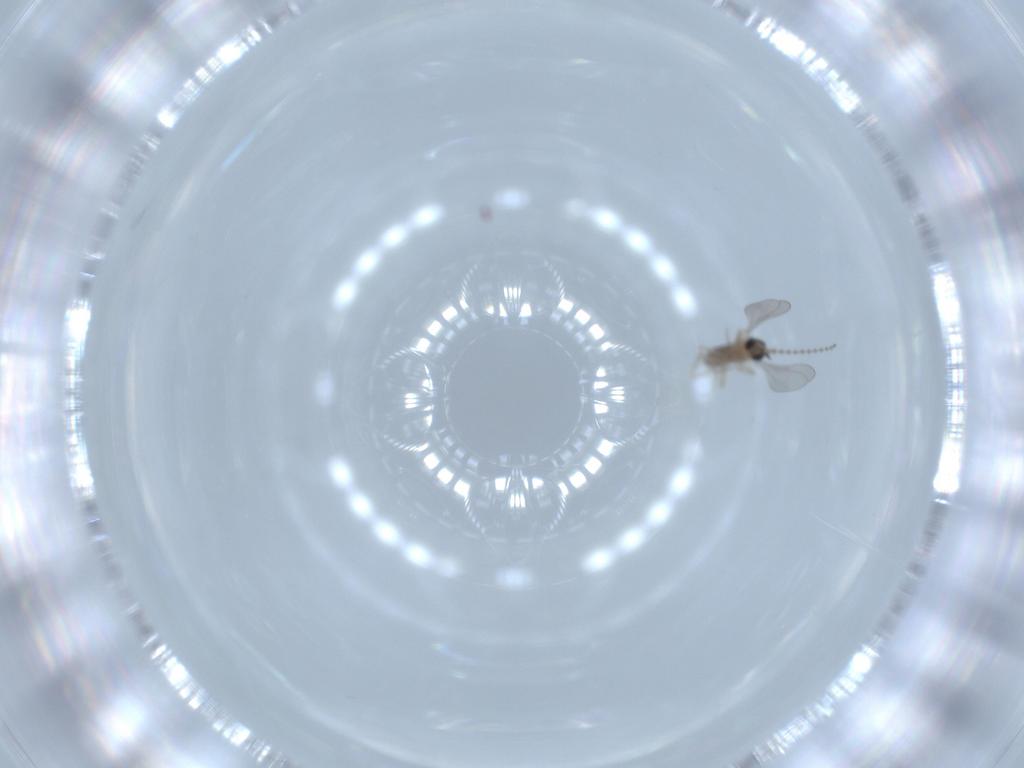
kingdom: Animalia
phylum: Arthropoda
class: Insecta
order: Diptera
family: Cecidomyiidae
